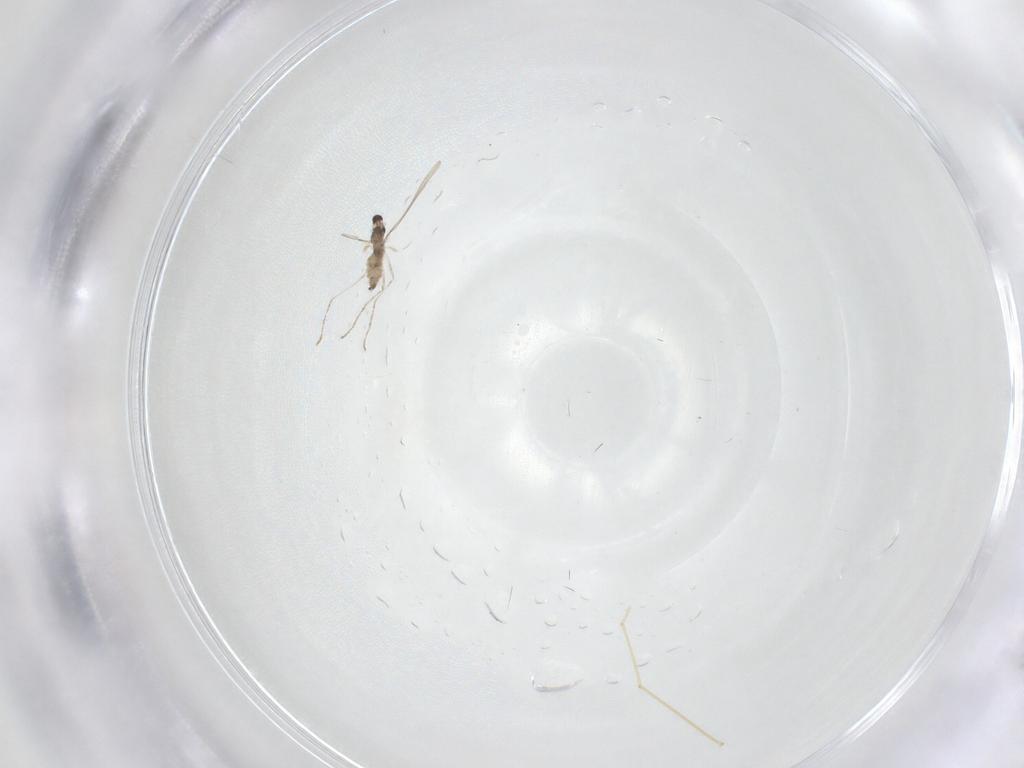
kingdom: Animalia
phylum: Arthropoda
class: Insecta
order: Diptera
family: Cecidomyiidae
